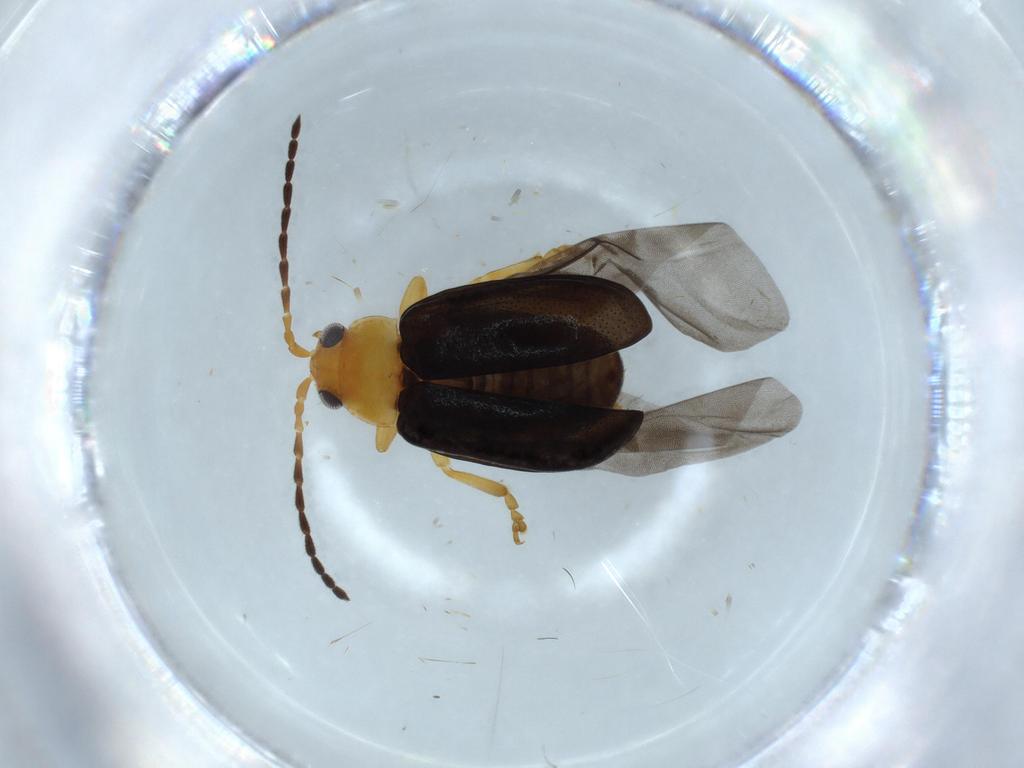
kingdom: Animalia
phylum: Arthropoda
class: Insecta
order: Coleoptera
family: Chrysomelidae
